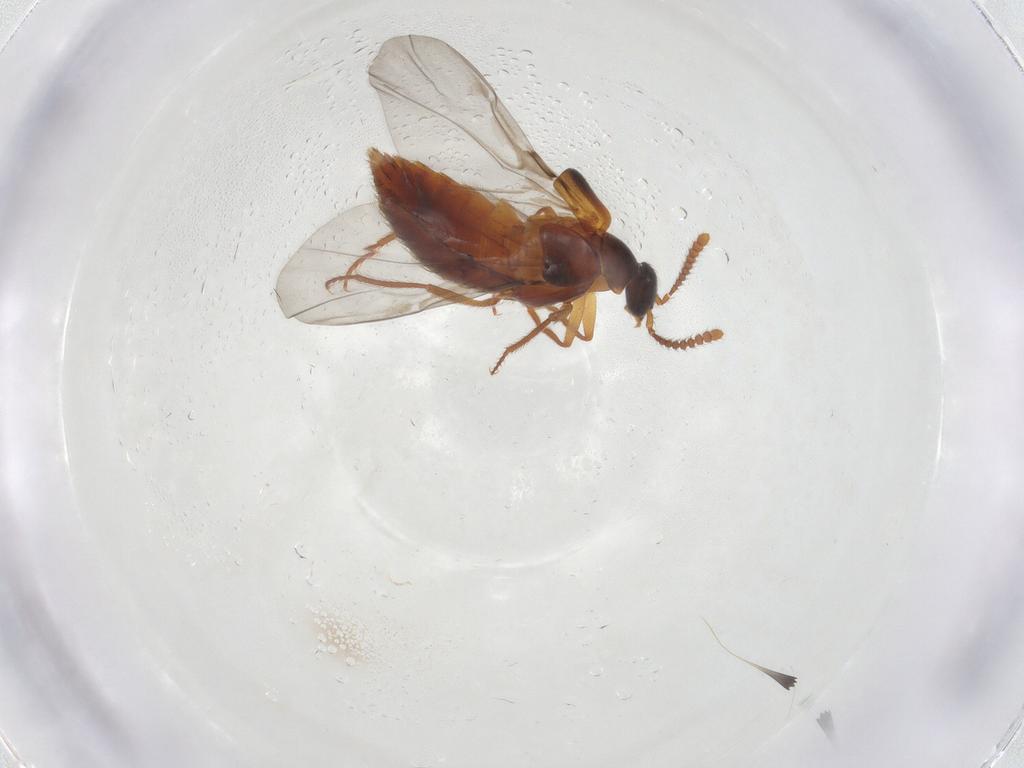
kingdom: Animalia
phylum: Arthropoda
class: Insecta
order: Coleoptera
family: Staphylinidae
